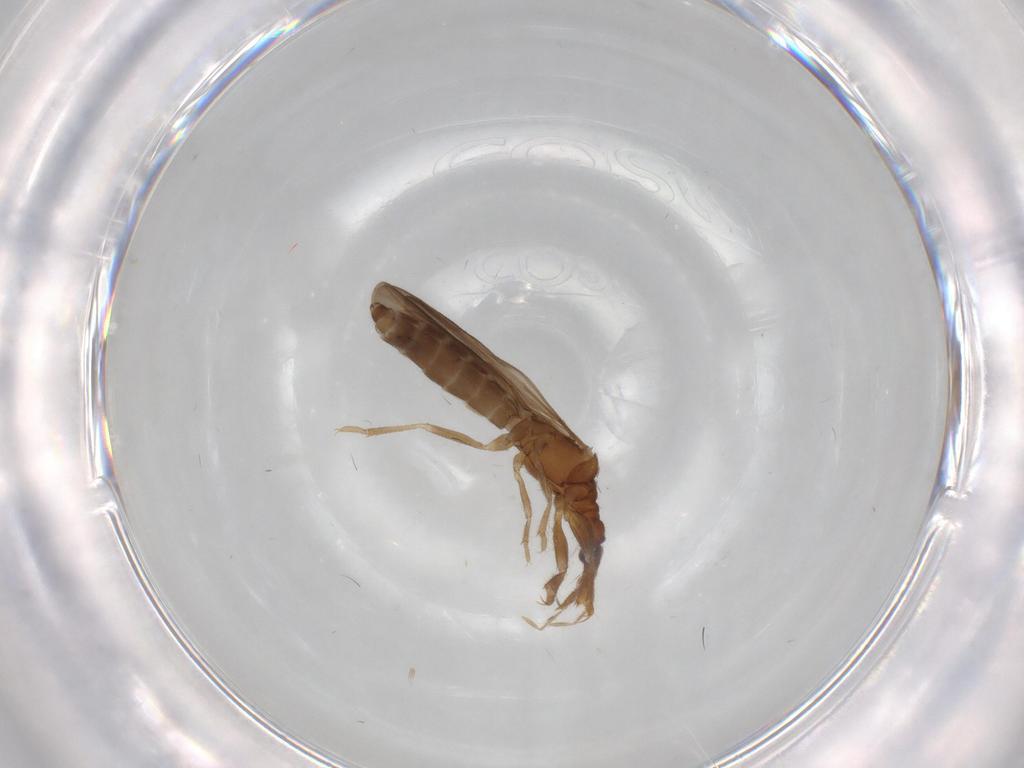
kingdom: Animalia
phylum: Arthropoda
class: Insecta
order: Hemiptera
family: Enicocephalidae
